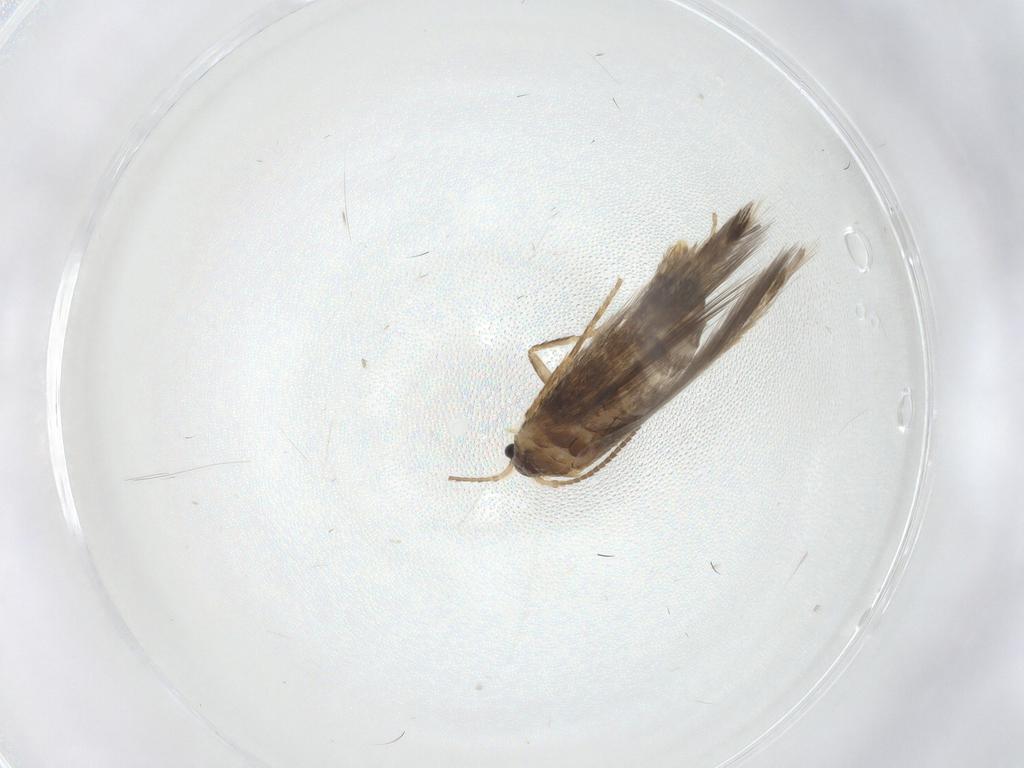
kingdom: Animalia
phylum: Arthropoda
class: Insecta
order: Lepidoptera
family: Nepticulidae
